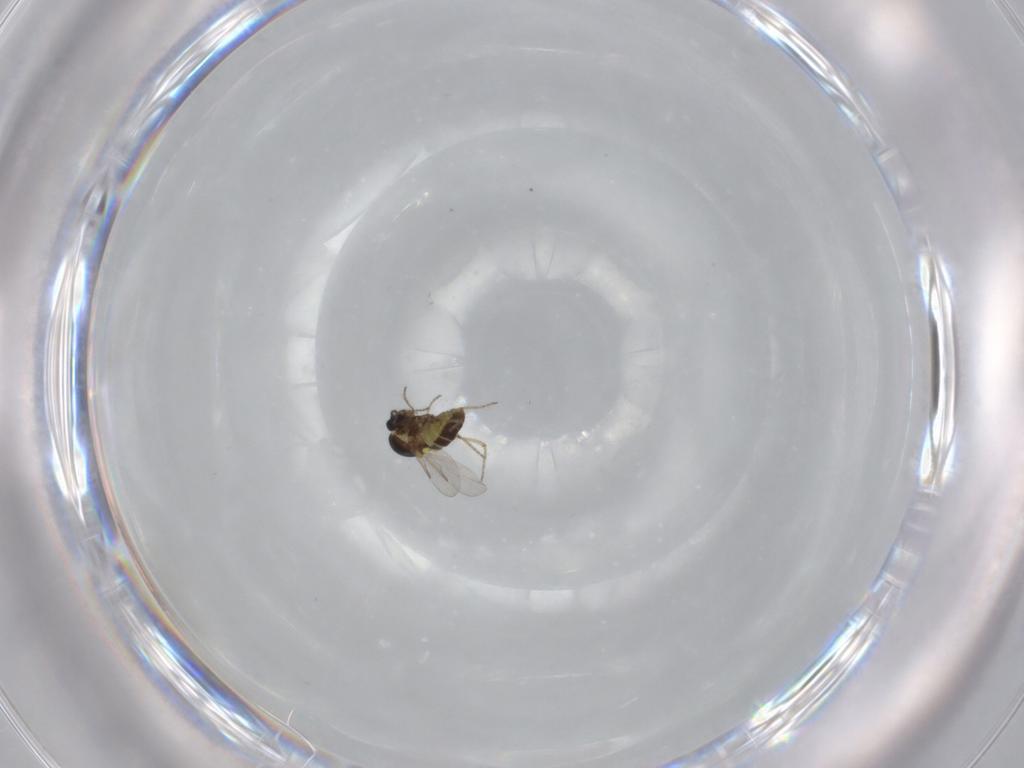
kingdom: Animalia
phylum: Arthropoda
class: Insecta
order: Diptera
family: Ceratopogonidae
